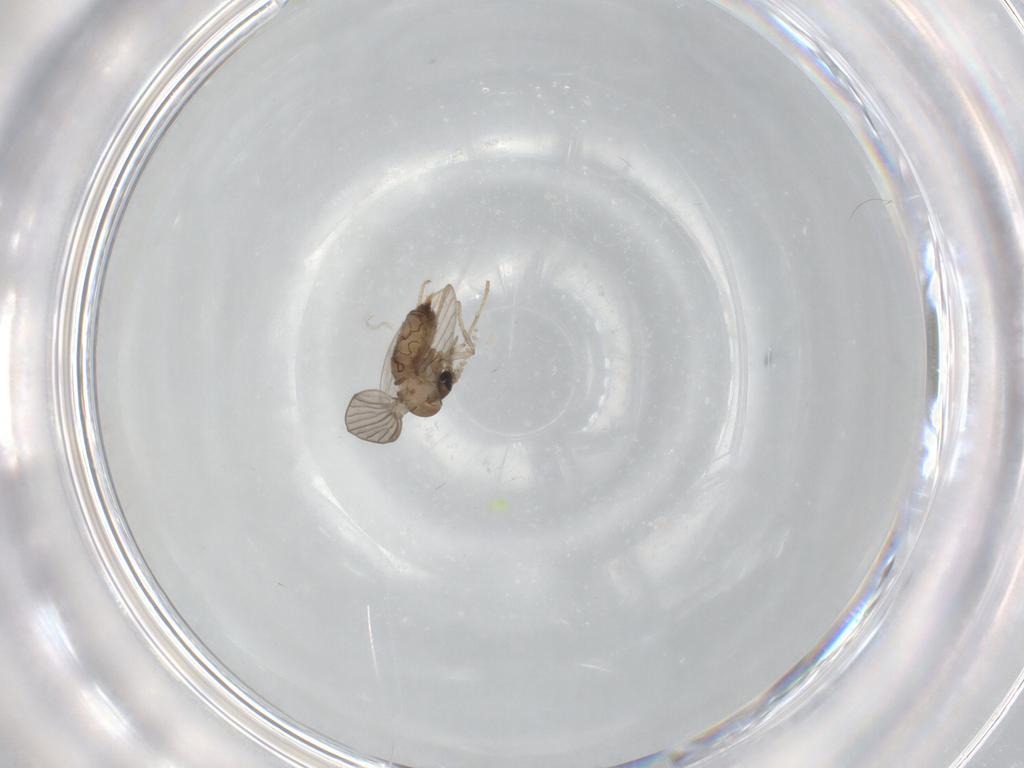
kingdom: Animalia
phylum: Arthropoda
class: Insecta
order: Diptera
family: Psychodidae
